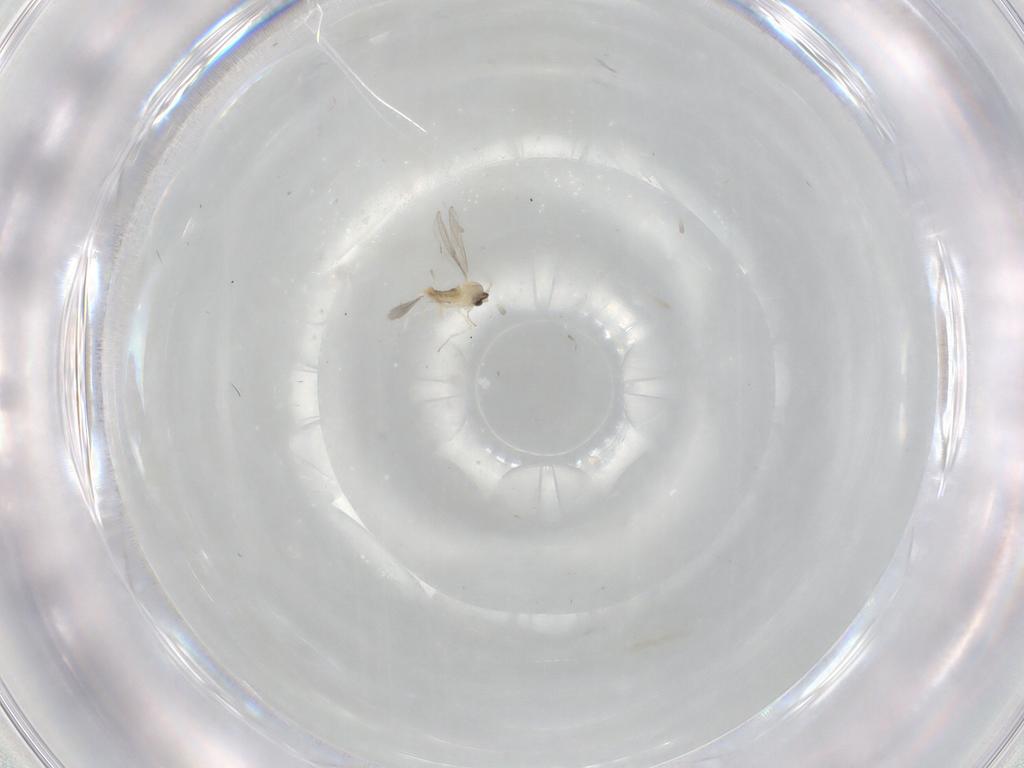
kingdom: Animalia
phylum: Arthropoda
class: Insecta
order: Diptera
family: Cecidomyiidae
